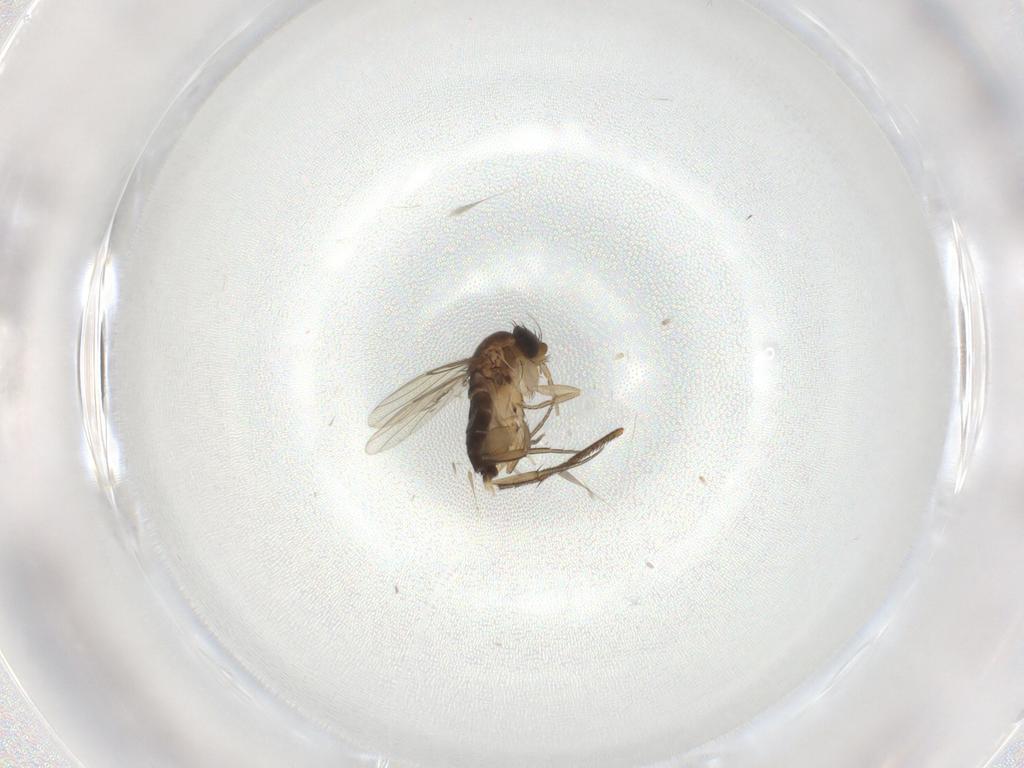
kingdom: Animalia
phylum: Arthropoda
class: Insecta
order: Diptera
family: Phoridae
